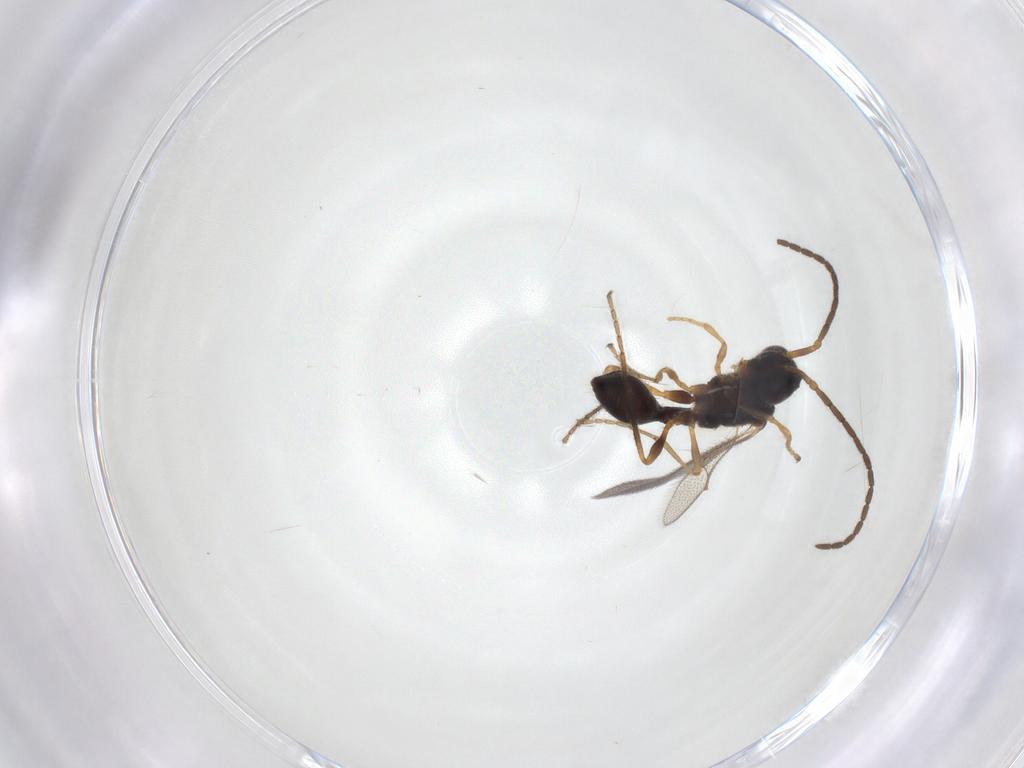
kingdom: Animalia
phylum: Arthropoda
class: Insecta
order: Hymenoptera
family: Diapriidae
